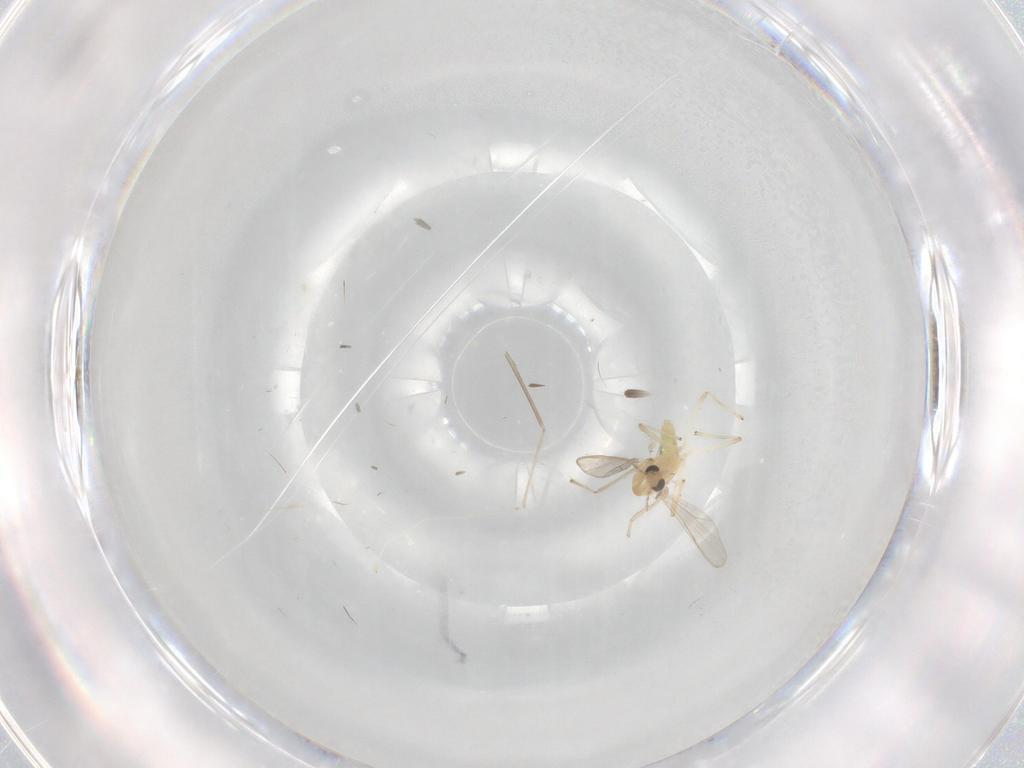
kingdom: Animalia
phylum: Arthropoda
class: Insecta
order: Diptera
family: Chironomidae
